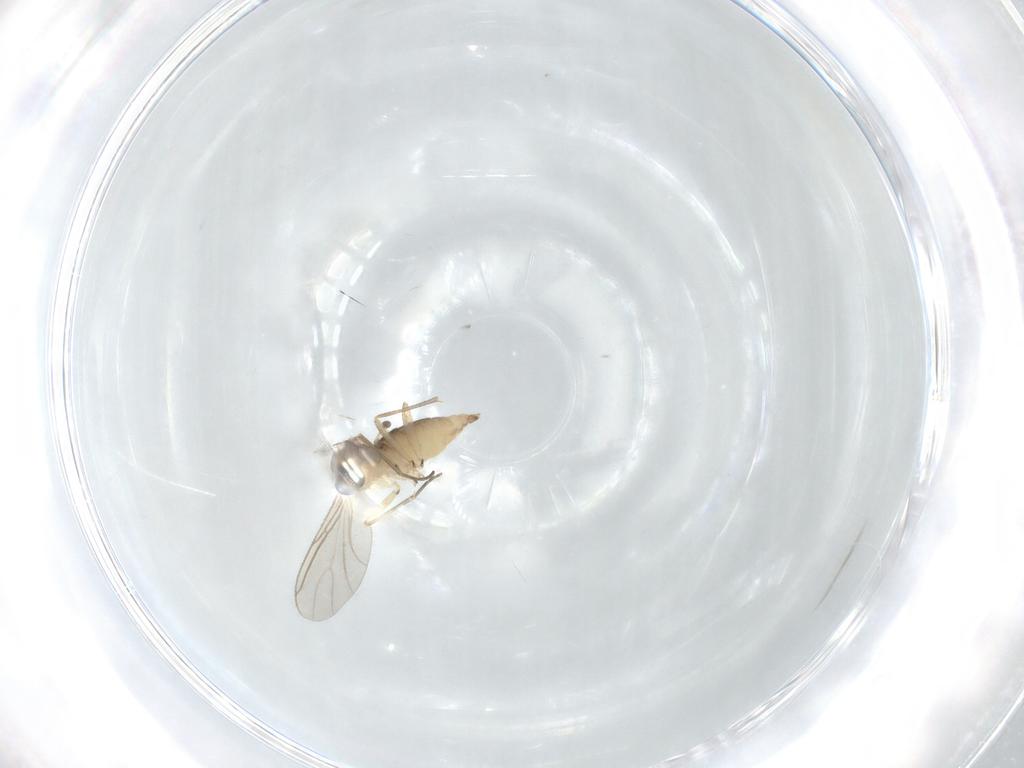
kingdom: Animalia
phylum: Arthropoda
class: Insecta
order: Diptera
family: Sciaridae
